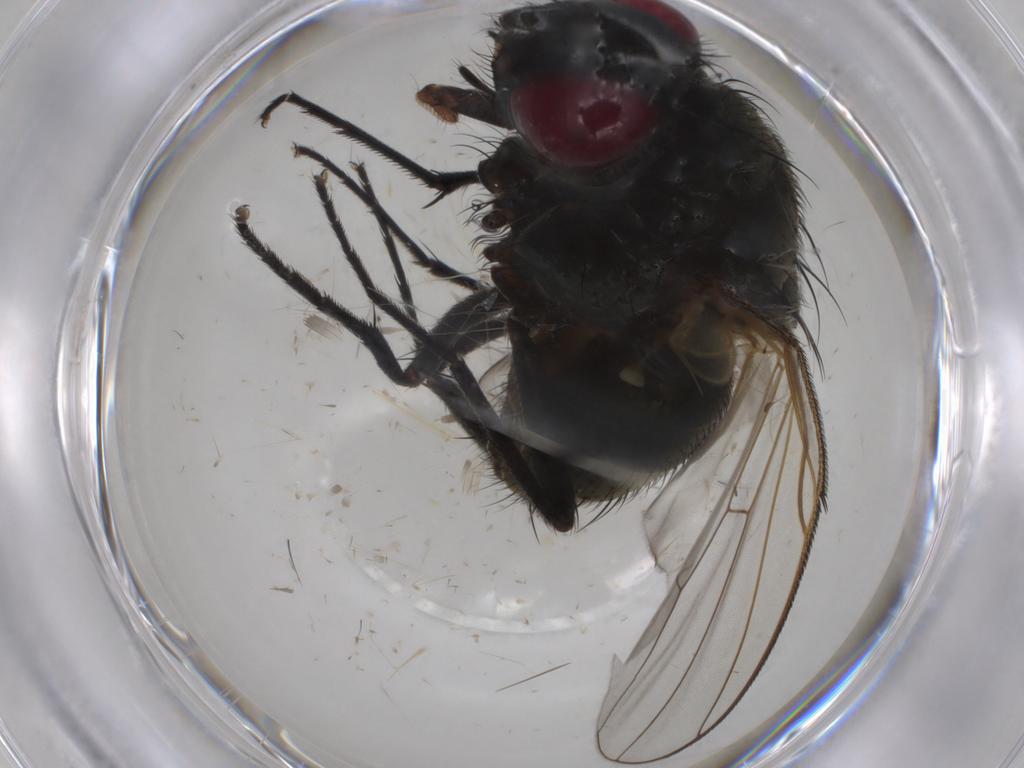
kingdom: Animalia
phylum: Arthropoda
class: Insecta
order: Diptera
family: Muscidae
